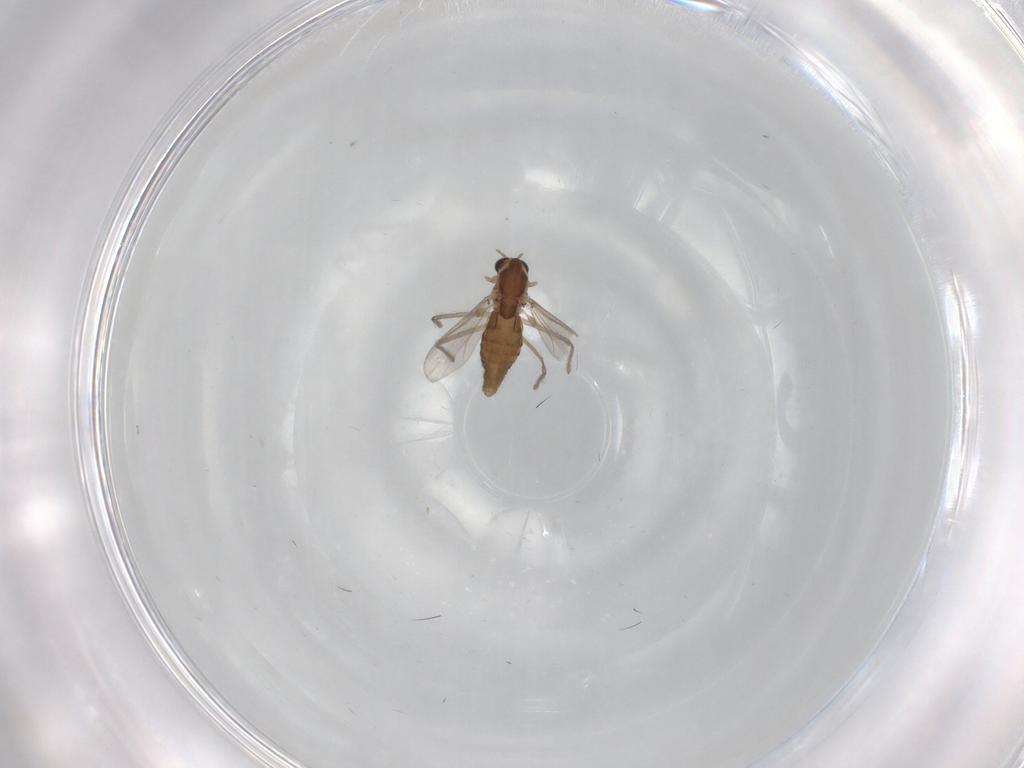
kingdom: Animalia
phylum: Arthropoda
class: Insecta
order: Diptera
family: Chironomidae
